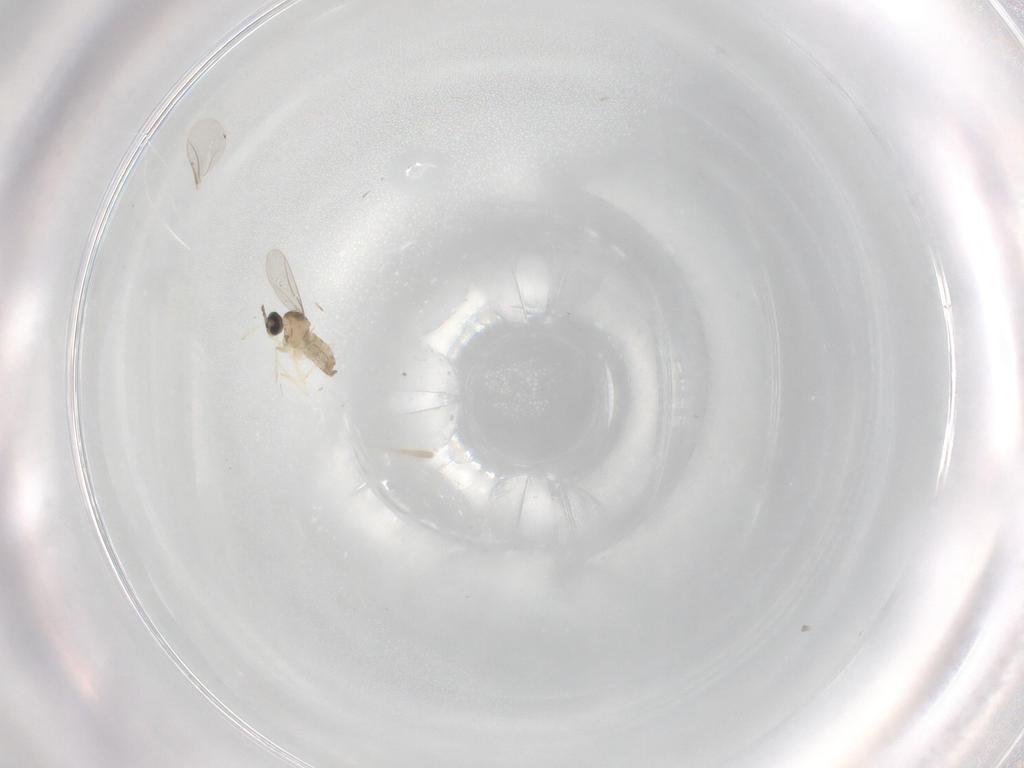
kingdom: Animalia
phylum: Arthropoda
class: Insecta
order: Diptera
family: Cecidomyiidae
